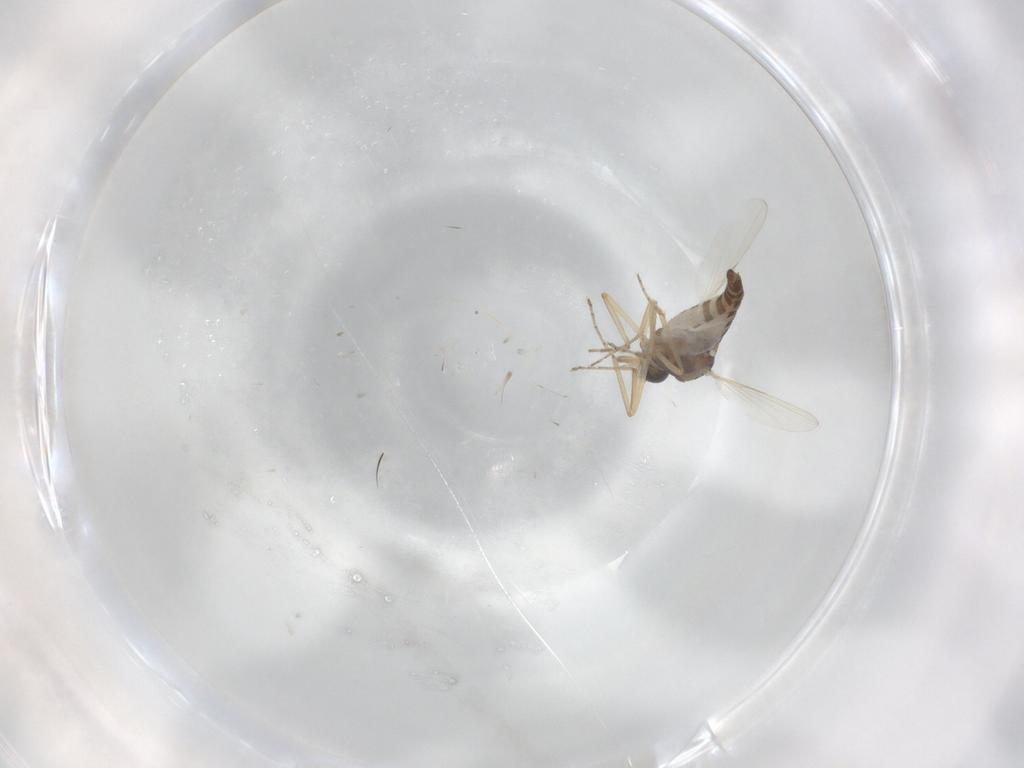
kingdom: Animalia
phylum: Arthropoda
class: Insecta
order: Diptera
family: Ceratopogonidae
